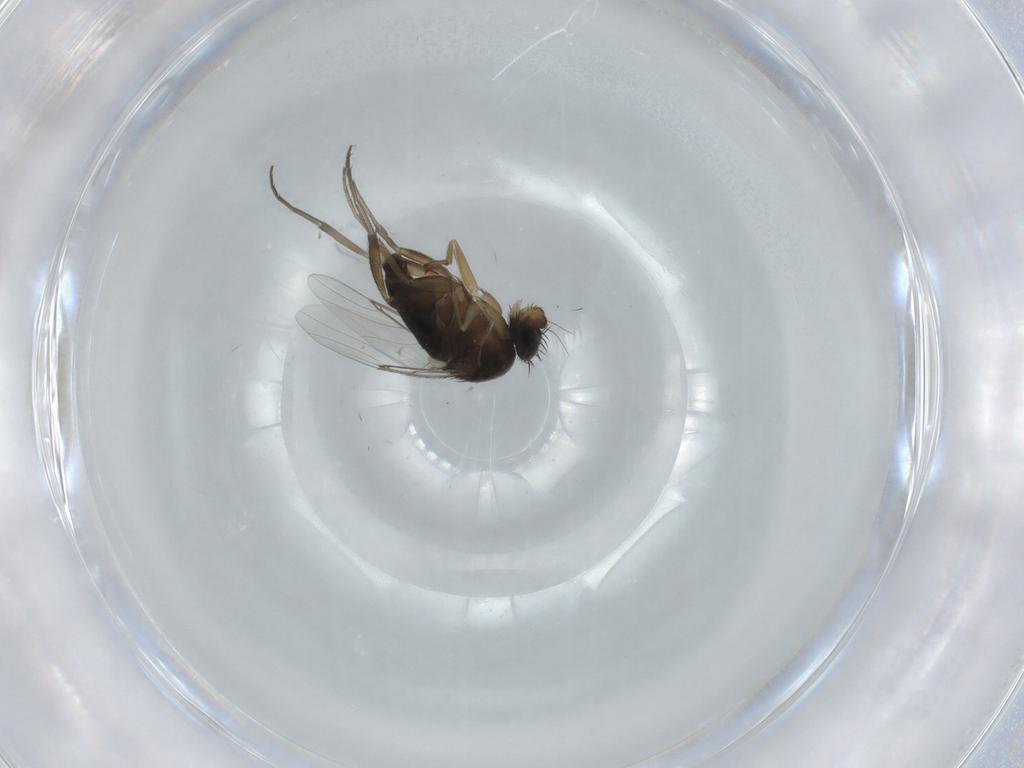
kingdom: Animalia
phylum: Arthropoda
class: Insecta
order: Diptera
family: Phoridae
